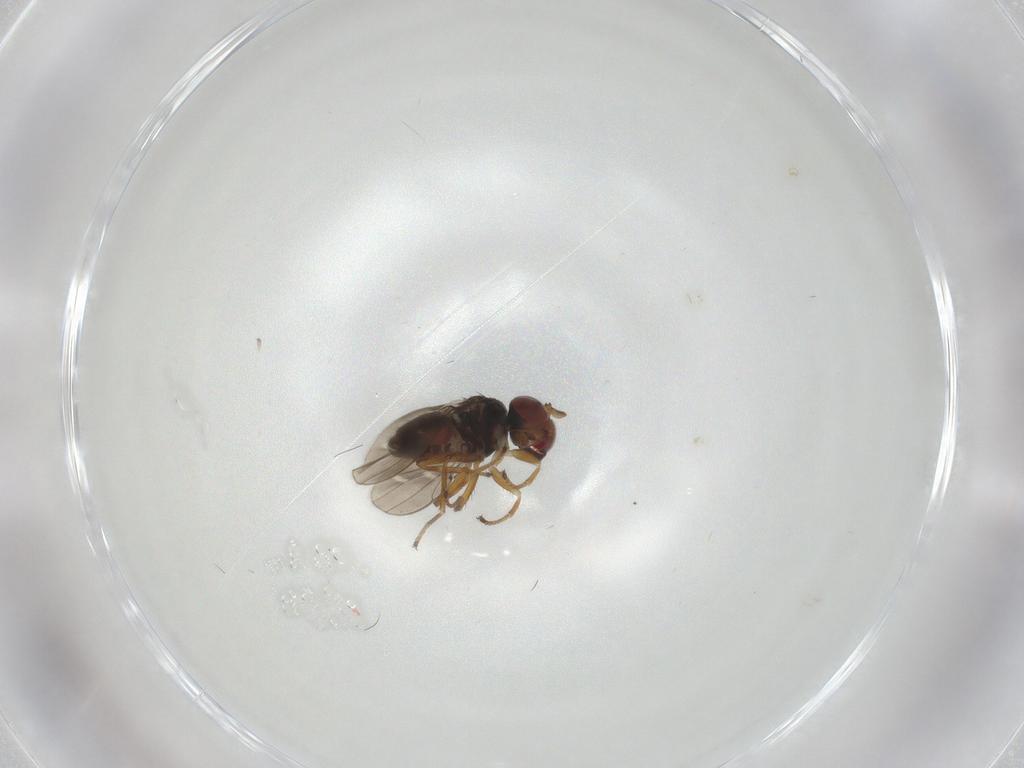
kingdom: Animalia
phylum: Arthropoda
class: Insecta
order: Diptera
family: Ephydridae
